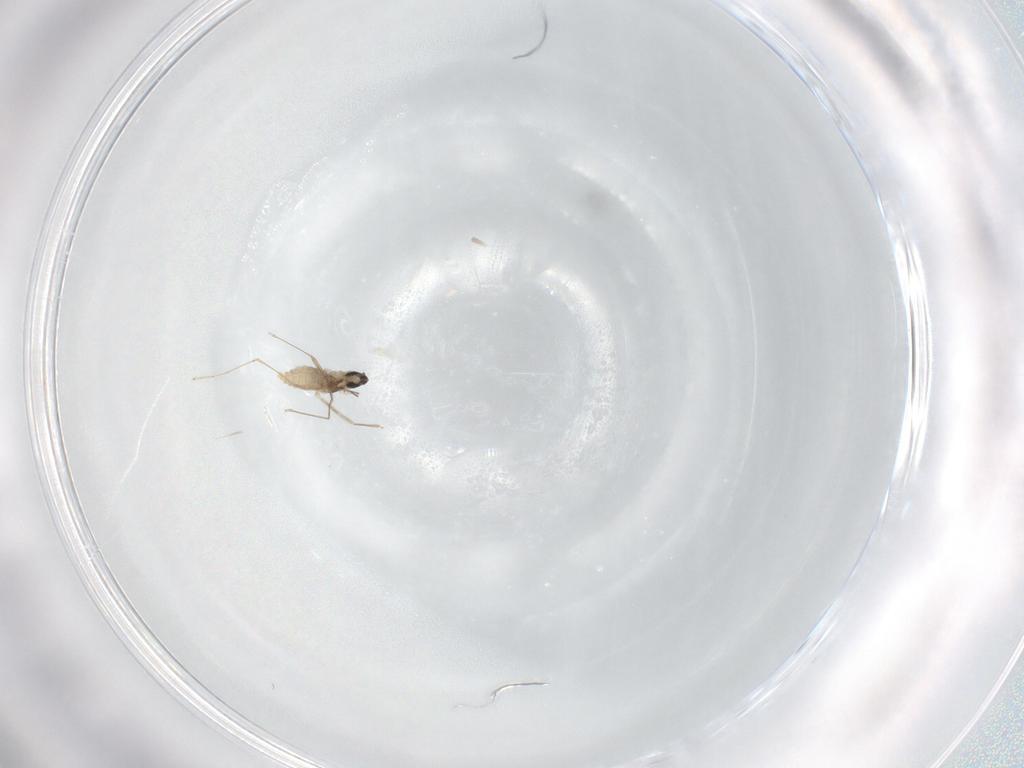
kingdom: Animalia
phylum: Arthropoda
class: Insecta
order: Diptera
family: Cecidomyiidae
